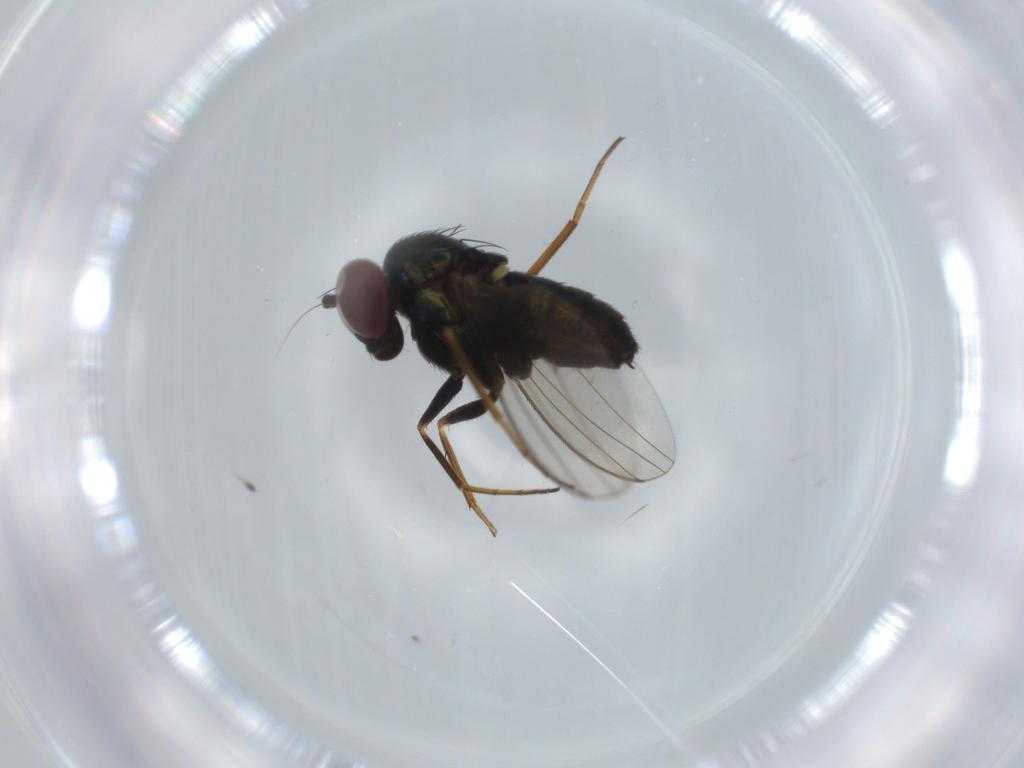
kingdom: Animalia
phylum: Arthropoda
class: Insecta
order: Diptera
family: Dolichopodidae
